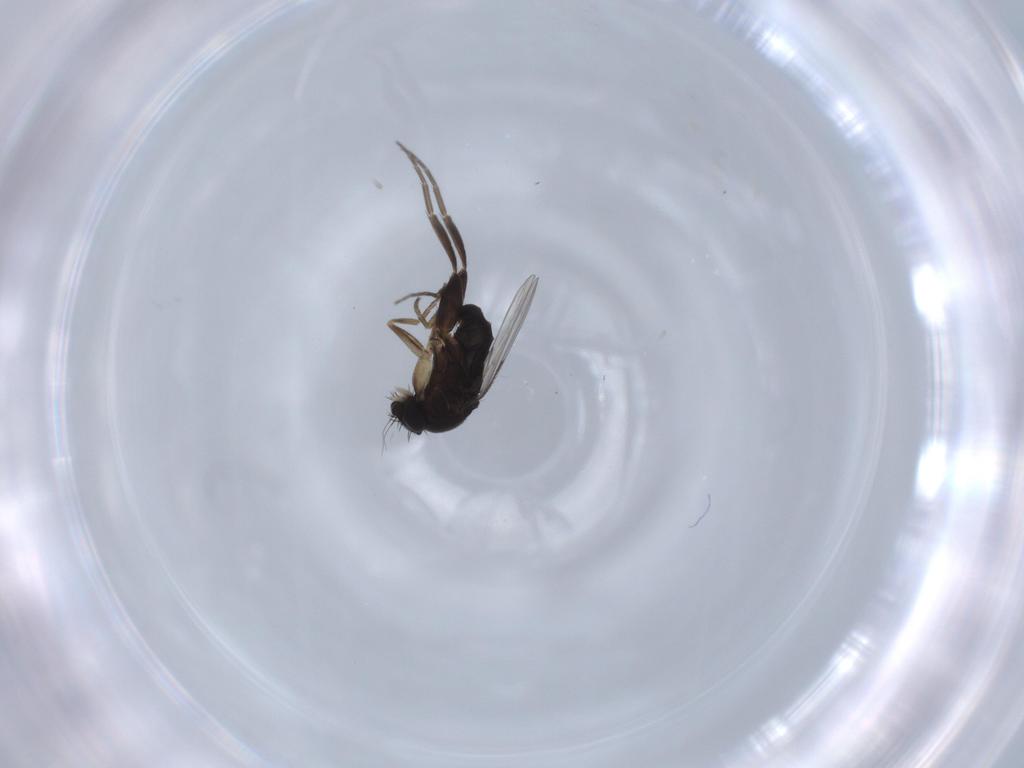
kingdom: Animalia
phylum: Arthropoda
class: Insecta
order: Diptera
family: Phoridae
